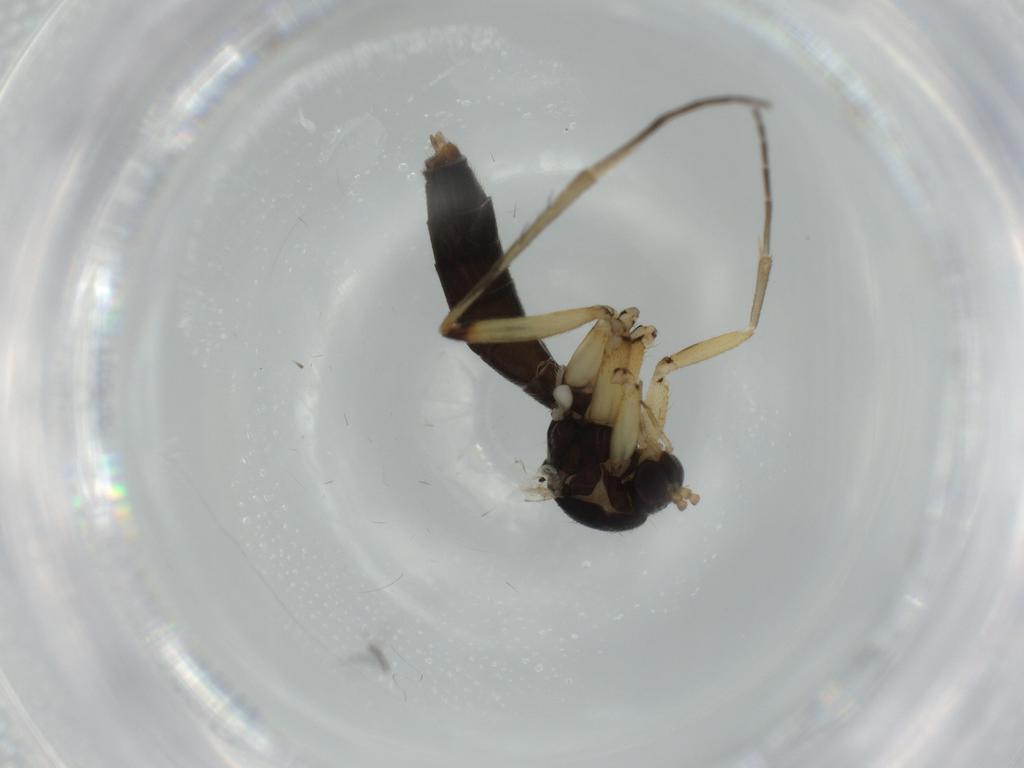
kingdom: Animalia
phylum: Arthropoda
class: Insecta
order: Diptera
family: Mycetophilidae
